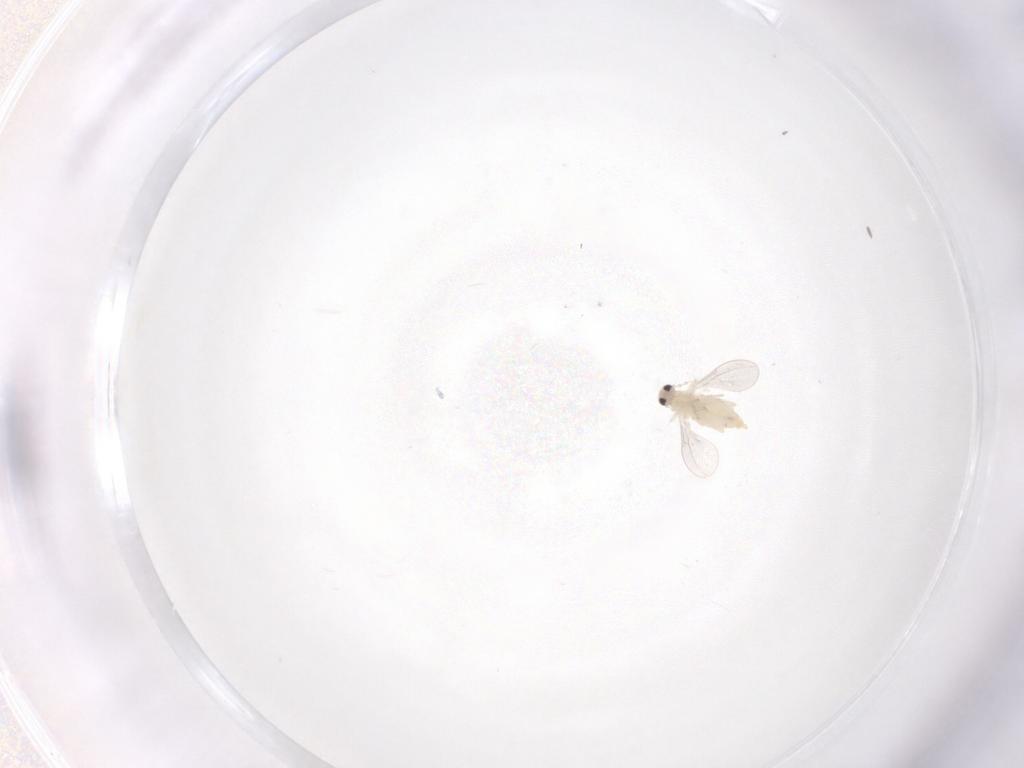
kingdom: Animalia
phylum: Arthropoda
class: Insecta
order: Diptera
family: Cecidomyiidae
